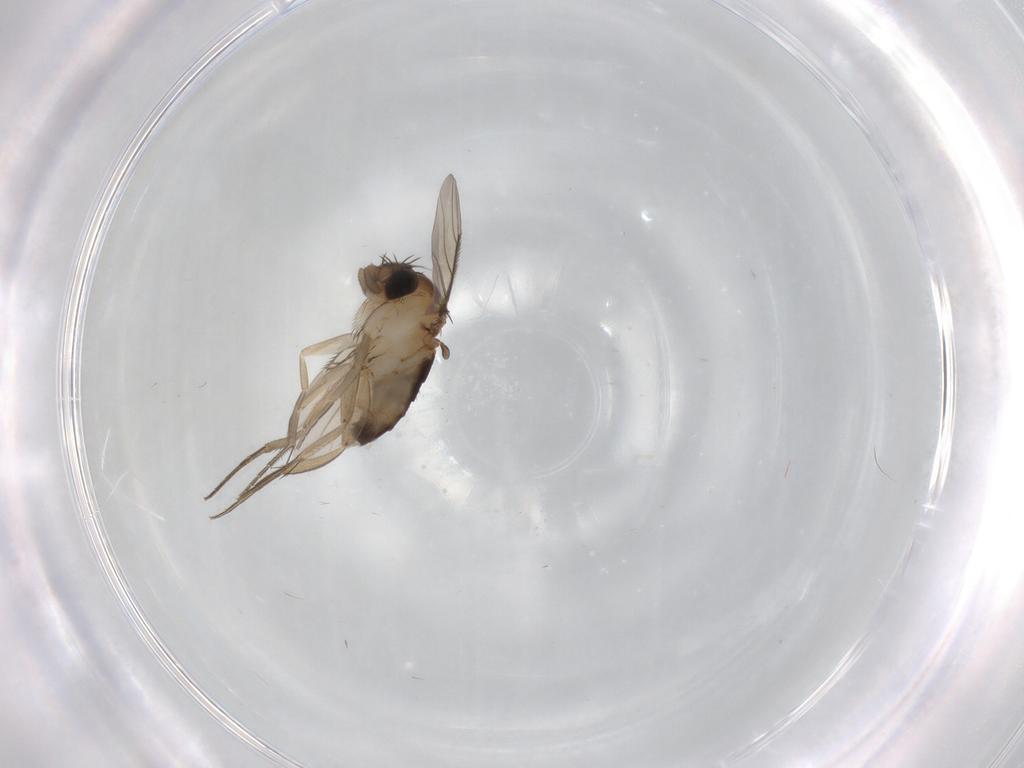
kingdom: Animalia
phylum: Arthropoda
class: Insecta
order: Diptera
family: Phoridae
